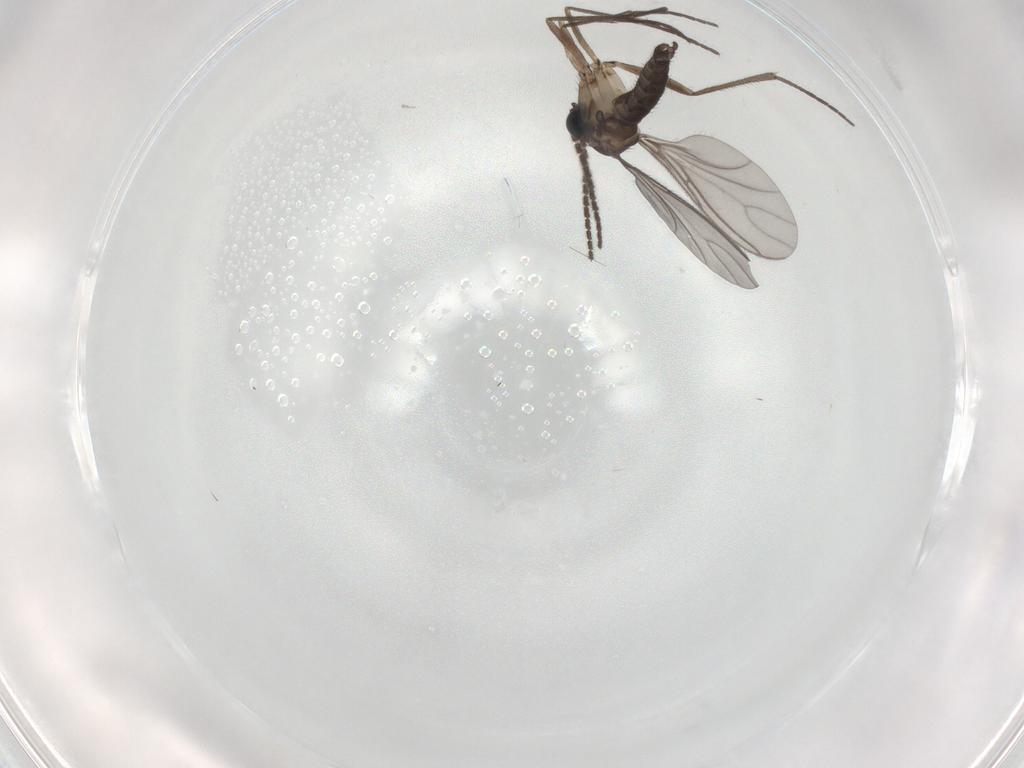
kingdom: Animalia
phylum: Arthropoda
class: Insecta
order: Diptera
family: Sciaridae
